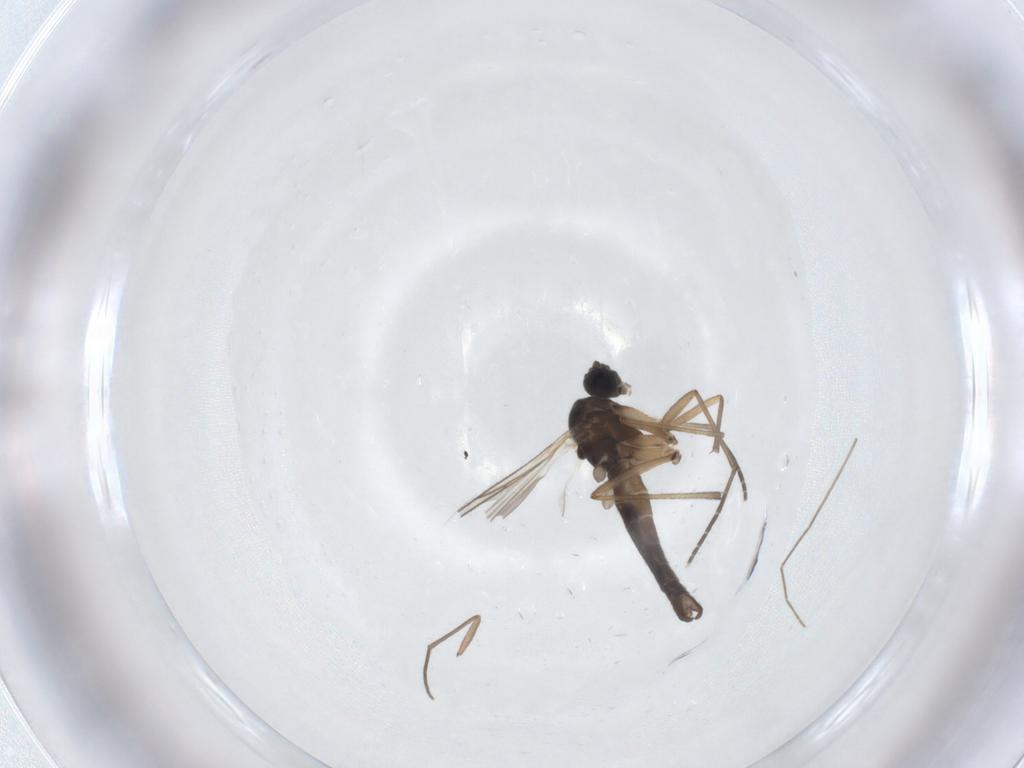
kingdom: Animalia
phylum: Arthropoda
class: Insecta
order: Diptera
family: Sciaridae
